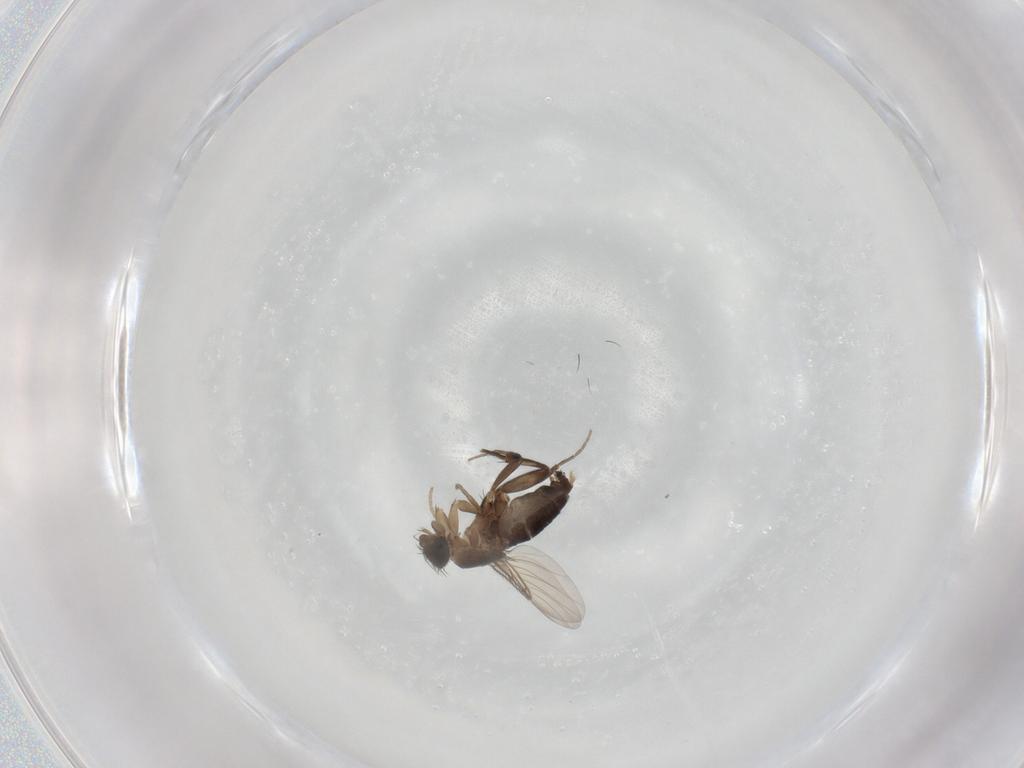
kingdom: Animalia
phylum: Arthropoda
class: Insecta
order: Diptera
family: Phoridae
